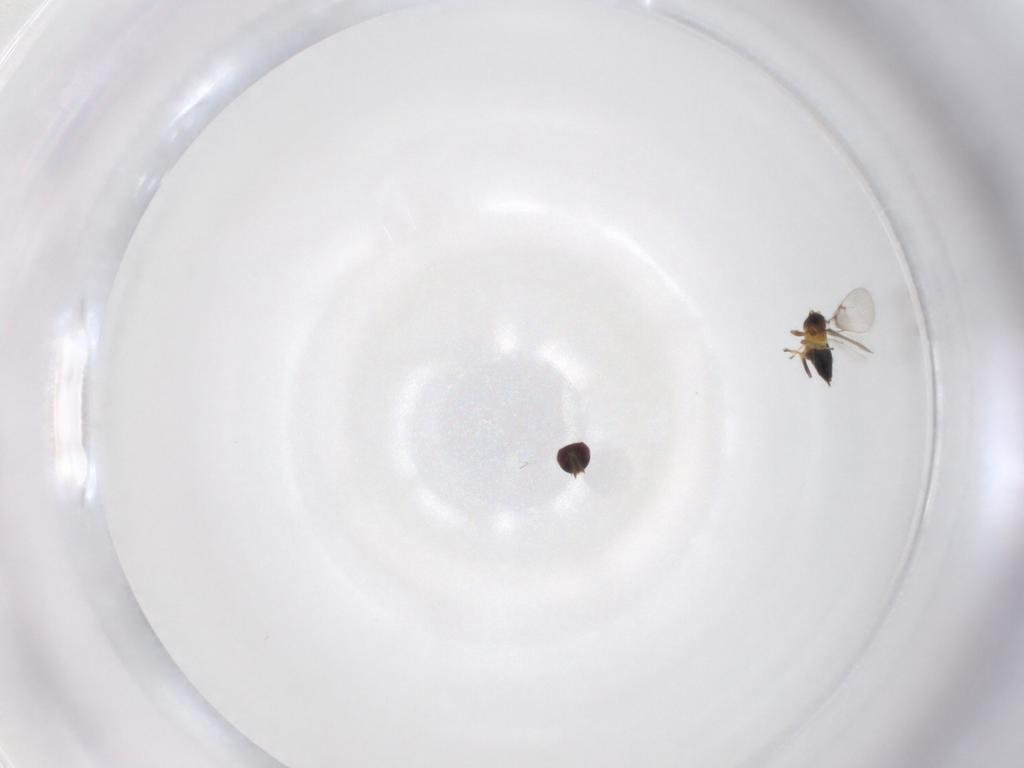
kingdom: Animalia
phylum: Arthropoda
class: Insecta
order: Hymenoptera
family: Trichogrammatidae
